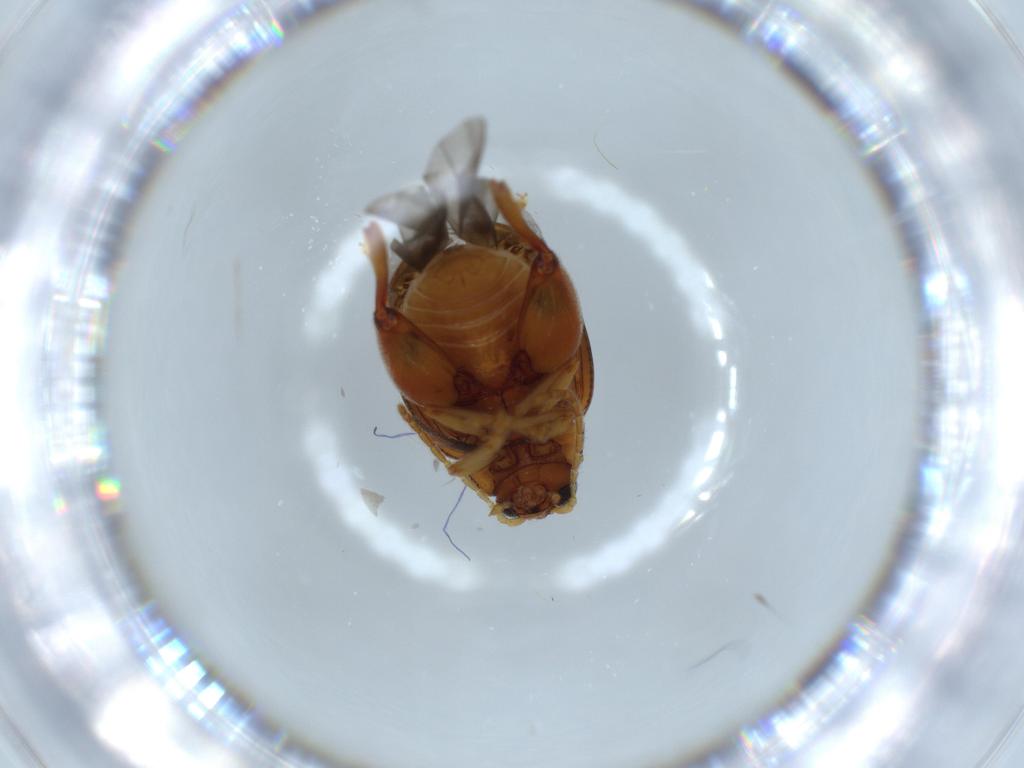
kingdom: Animalia
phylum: Arthropoda
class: Insecta
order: Coleoptera
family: Chrysomelidae
